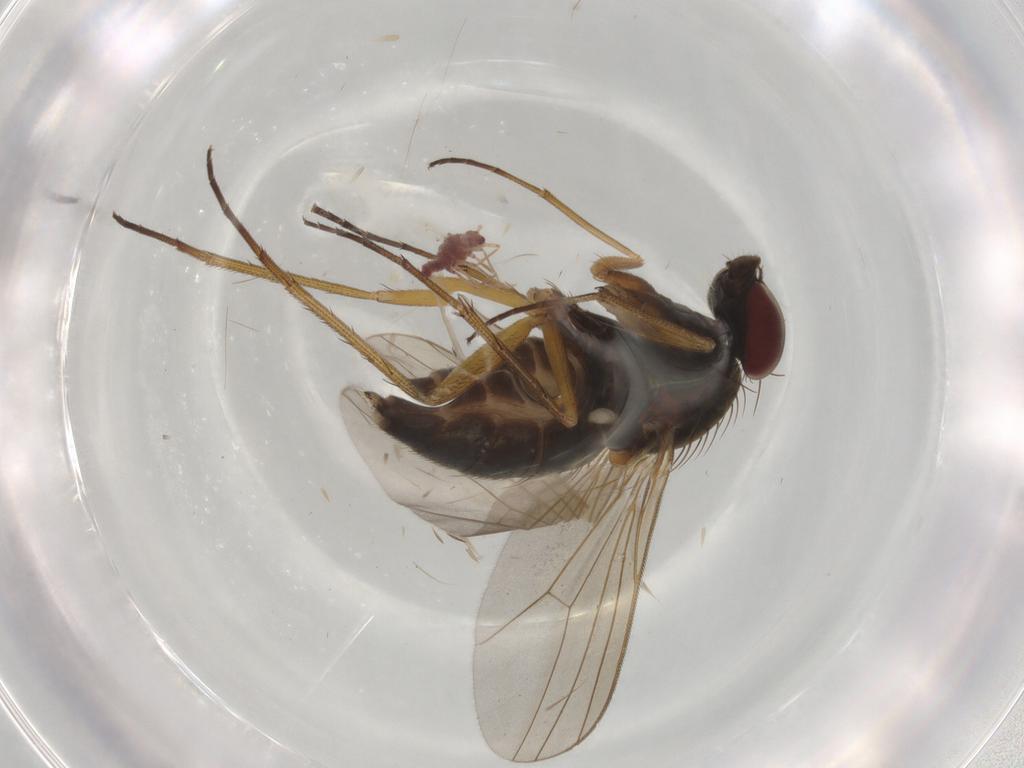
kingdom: Animalia
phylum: Arthropoda
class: Insecta
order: Diptera
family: Dolichopodidae
